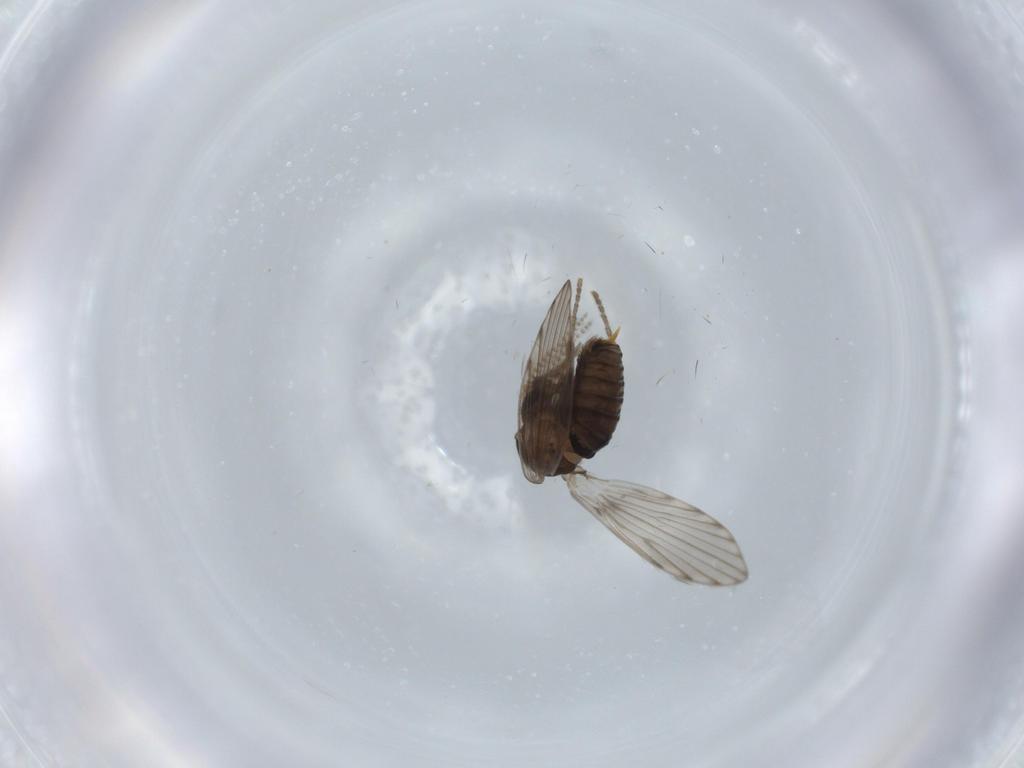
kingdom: Animalia
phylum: Arthropoda
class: Insecta
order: Diptera
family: Psychodidae
